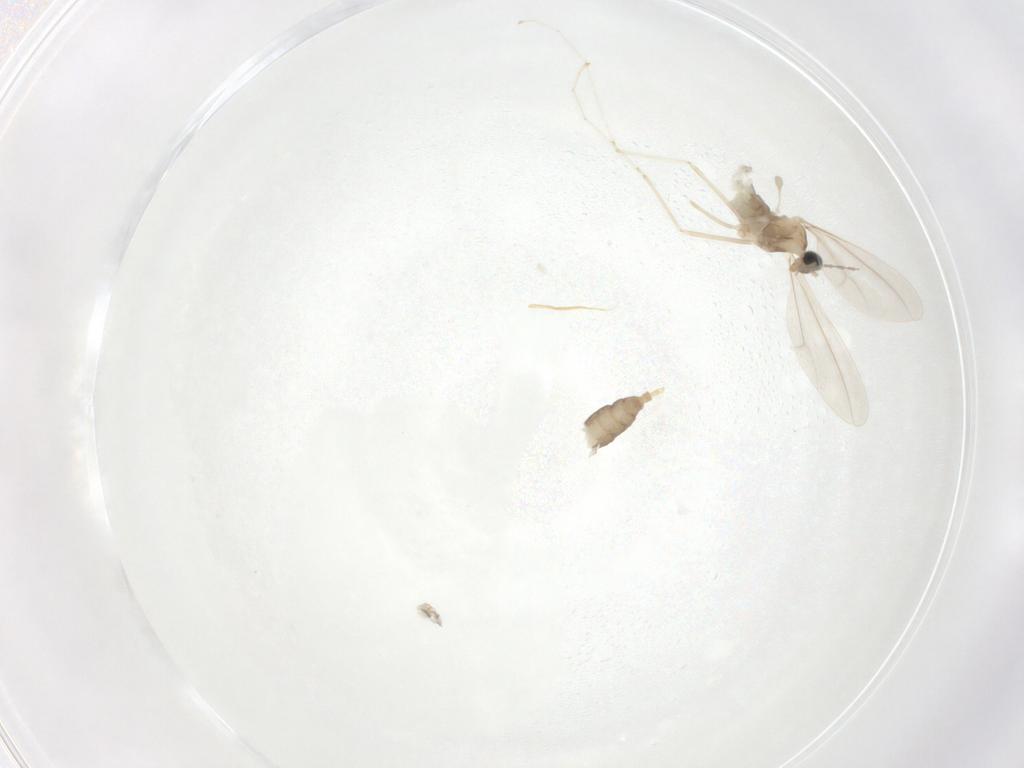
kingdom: Animalia
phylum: Arthropoda
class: Insecta
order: Diptera
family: Cecidomyiidae
